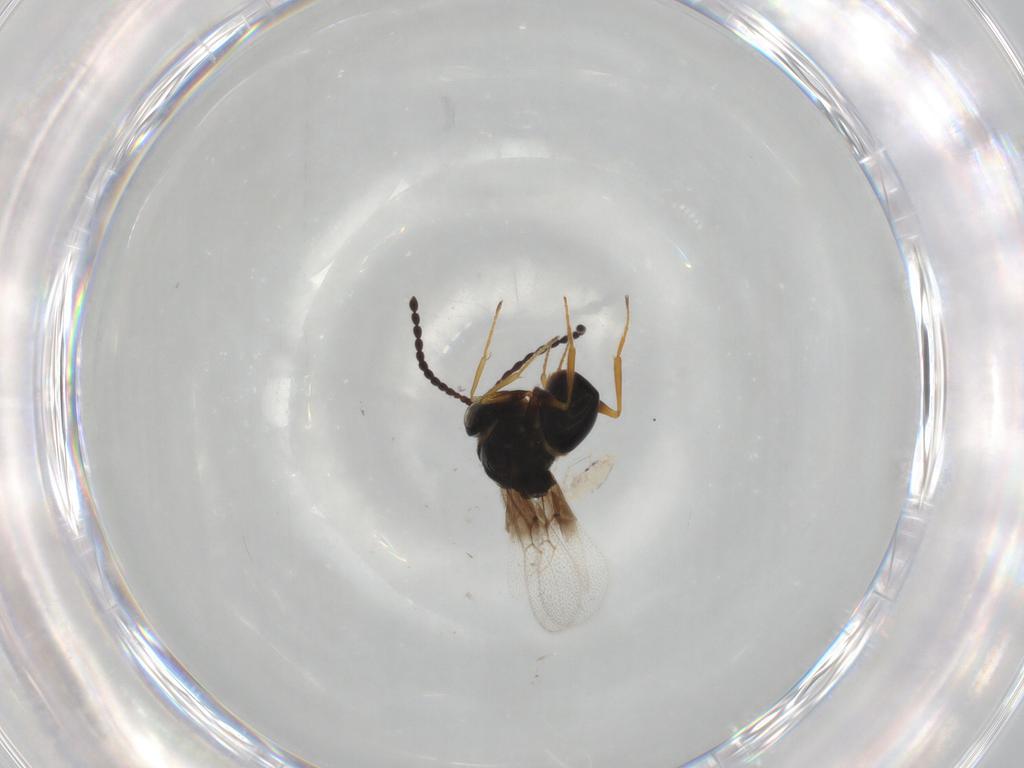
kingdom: Animalia
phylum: Arthropoda
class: Insecta
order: Hymenoptera
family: Figitidae
